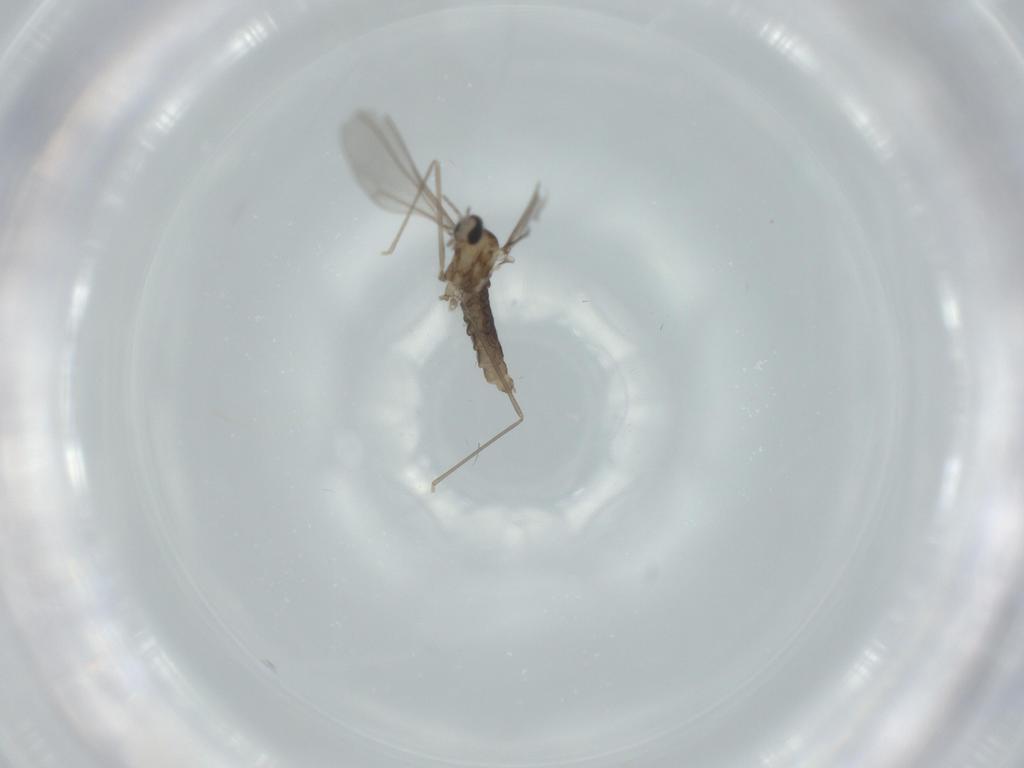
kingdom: Animalia
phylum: Arthropoda
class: Insecta
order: Diptera
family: Cecidomyiidae
